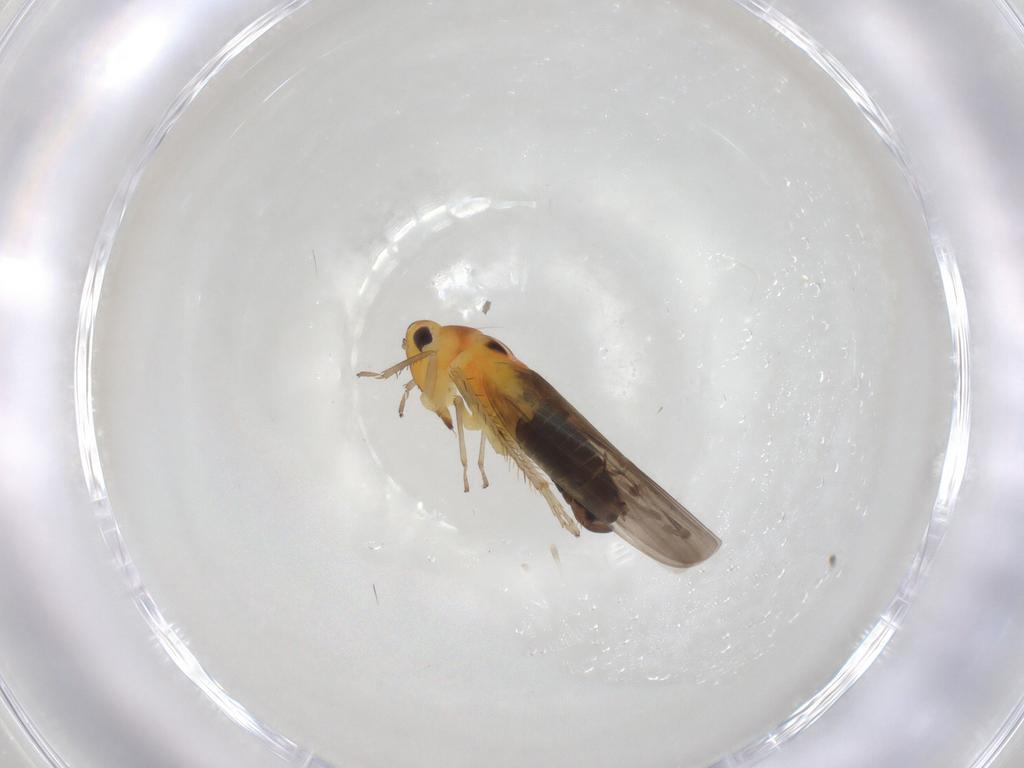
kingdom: Animalia
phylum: Arthropoda
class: Insecta
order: Hemiptera
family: Cicadellidae
